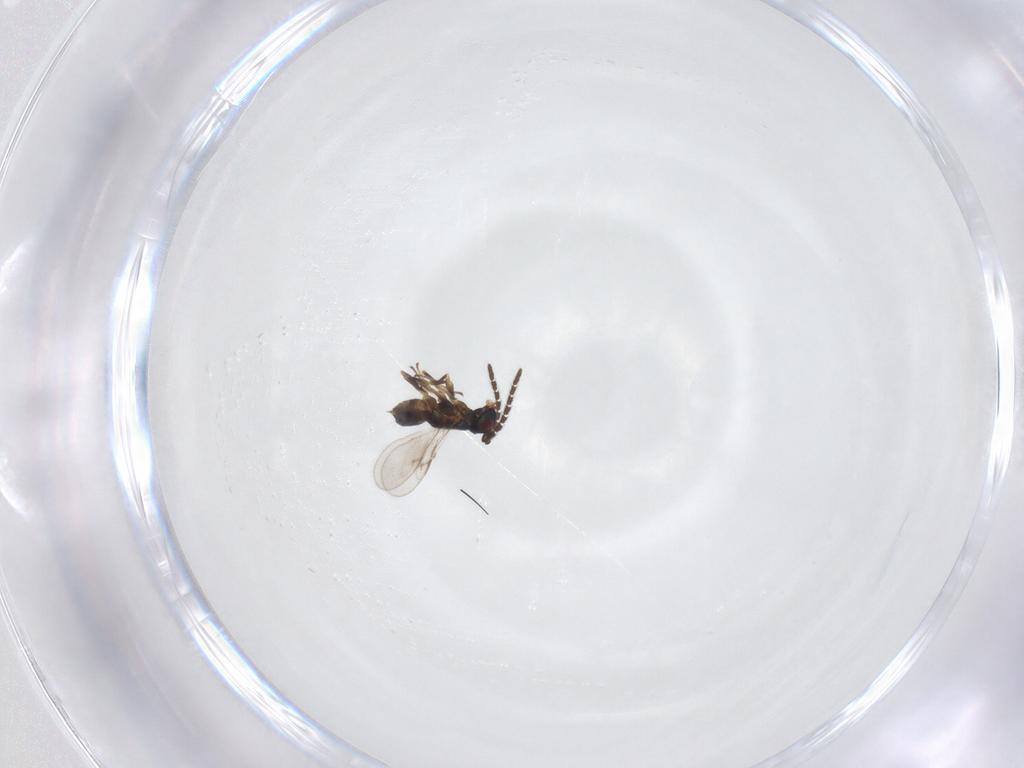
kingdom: Animalia
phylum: Arthropoda
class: Insecta
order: Hymenoptera
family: Encyrtidae
